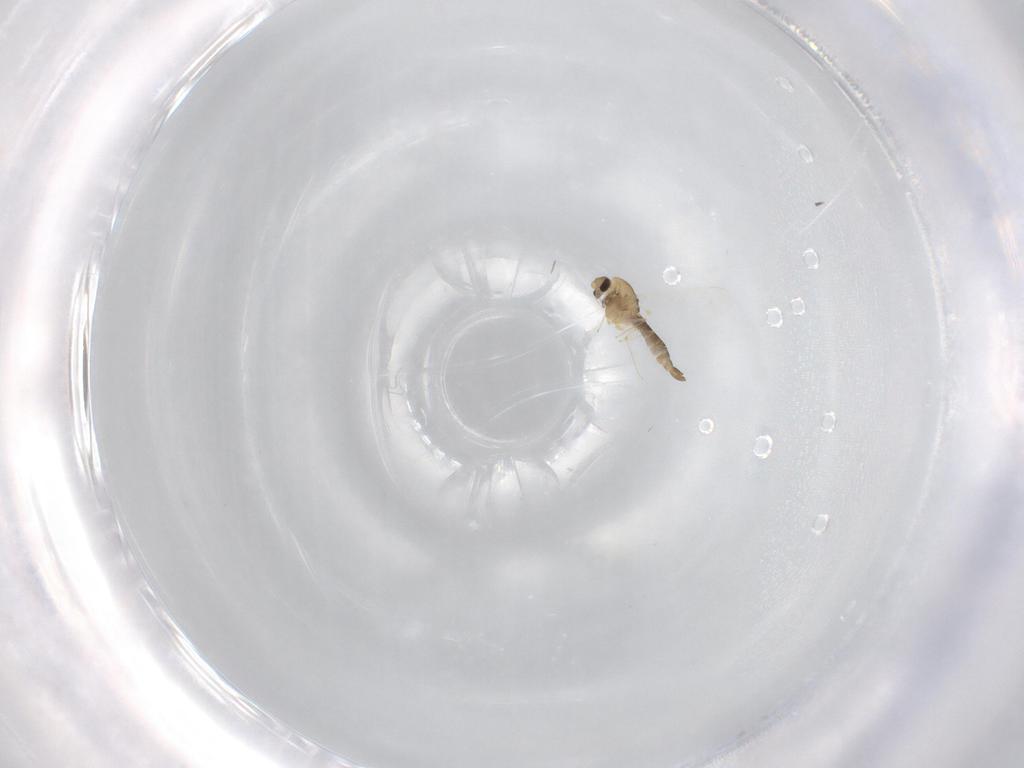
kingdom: Animalia
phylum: Arthropoda
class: Insecta
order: Diptera
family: Chironomidae
